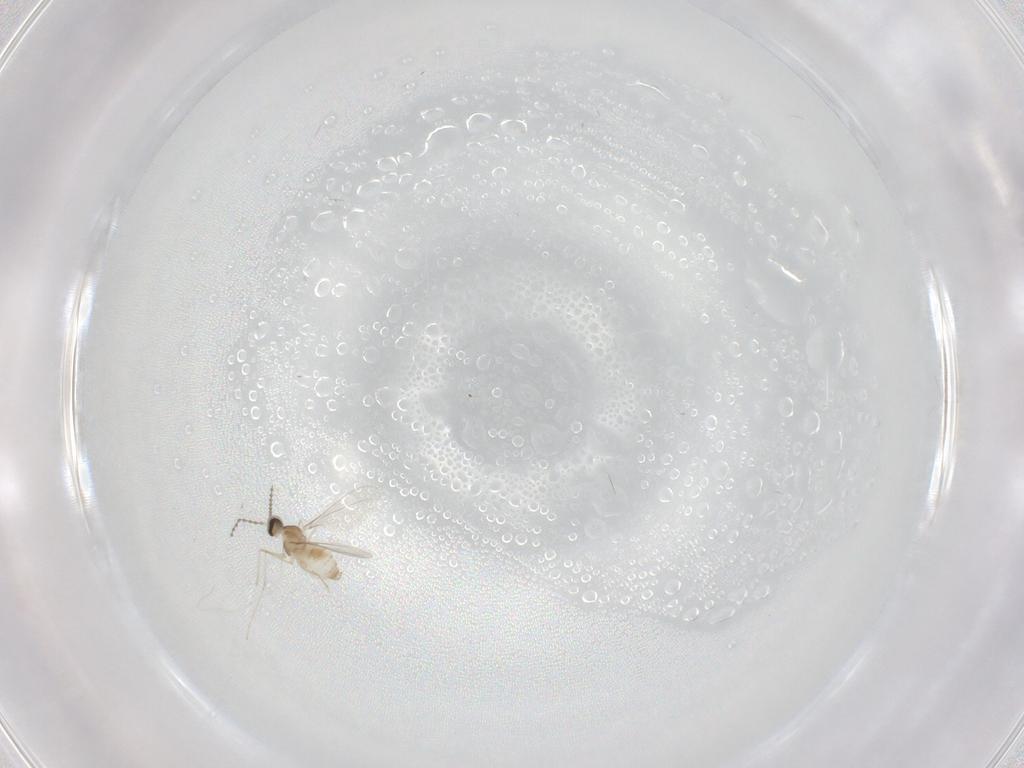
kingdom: Animalia
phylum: Arthropoda
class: Insecta
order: Diptera
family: Cecidomyiidae
